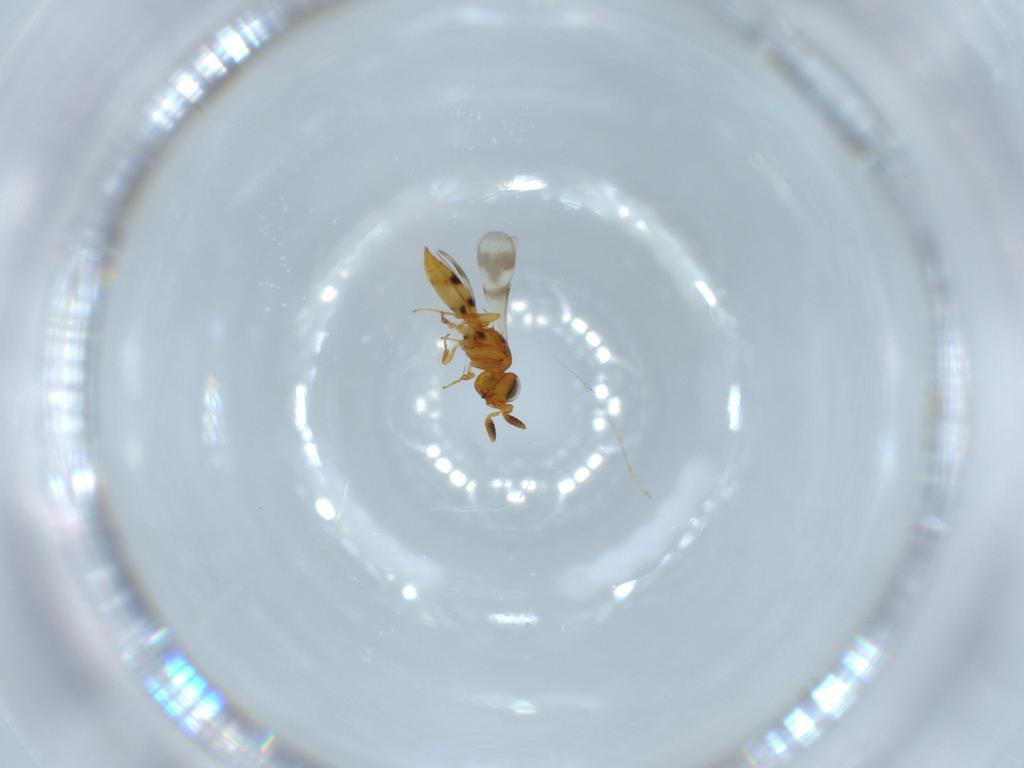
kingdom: Animalia
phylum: Arthropoda
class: Insecta
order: Hymenoptera
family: Scelionidae
